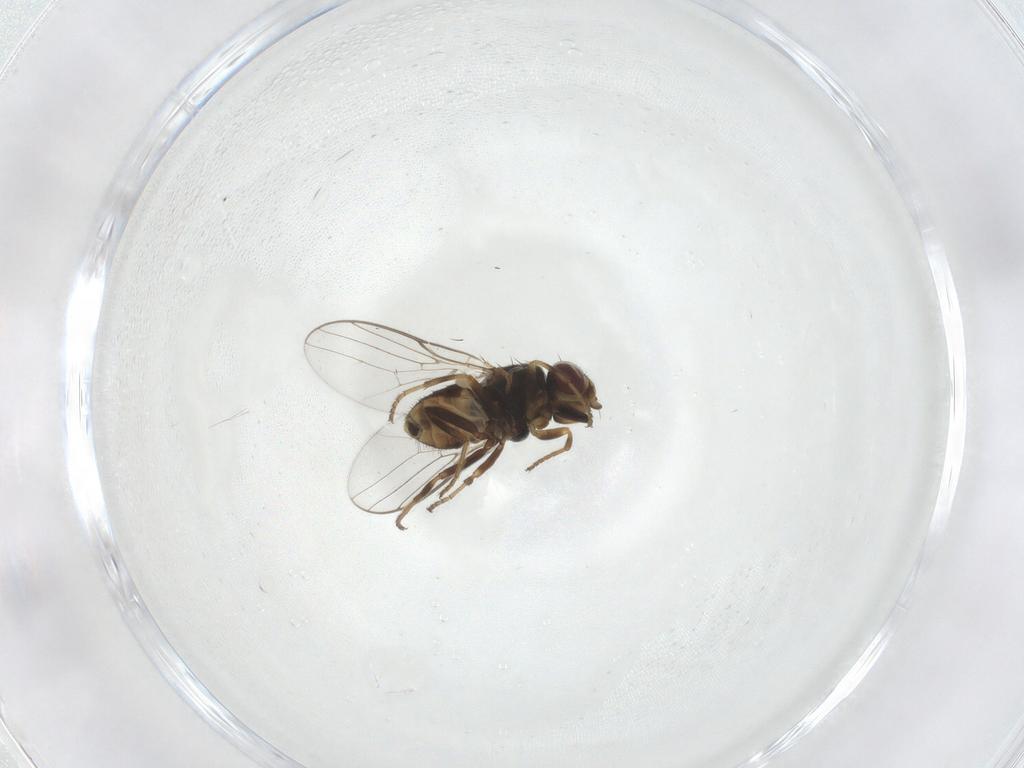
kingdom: Animalia
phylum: Arthropoda
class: Insecta
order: Diptera
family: Chloropidae
